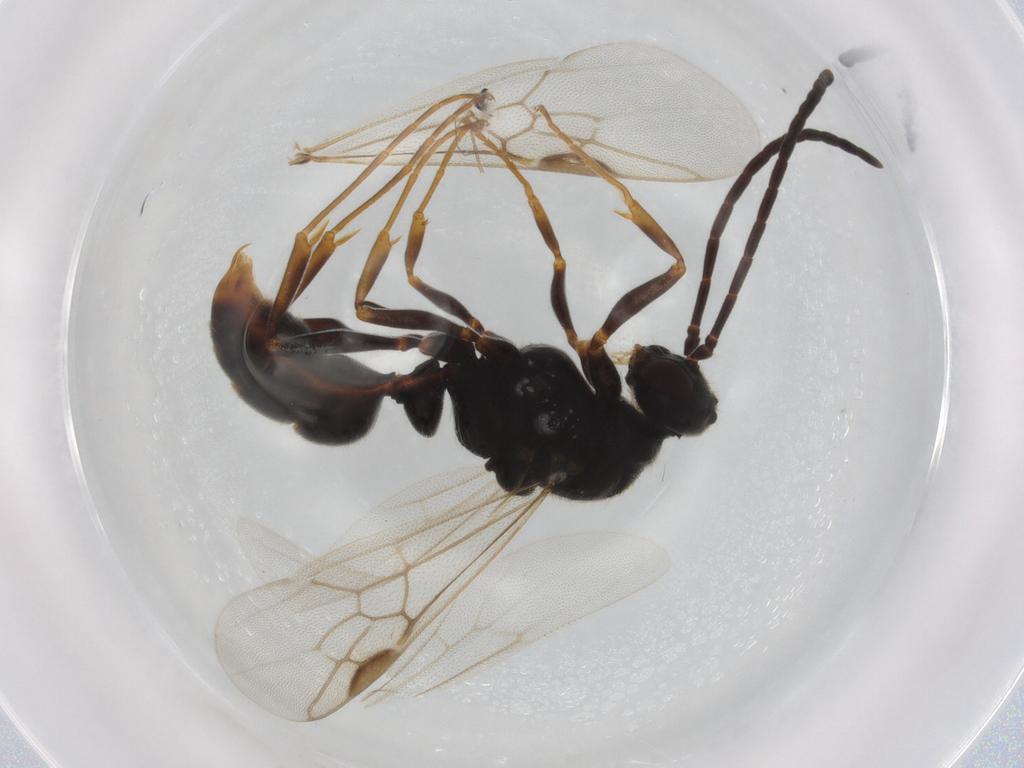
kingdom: Animalia
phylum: Arthropoda
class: Insecta
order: Hymenoptera
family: Formicidae
